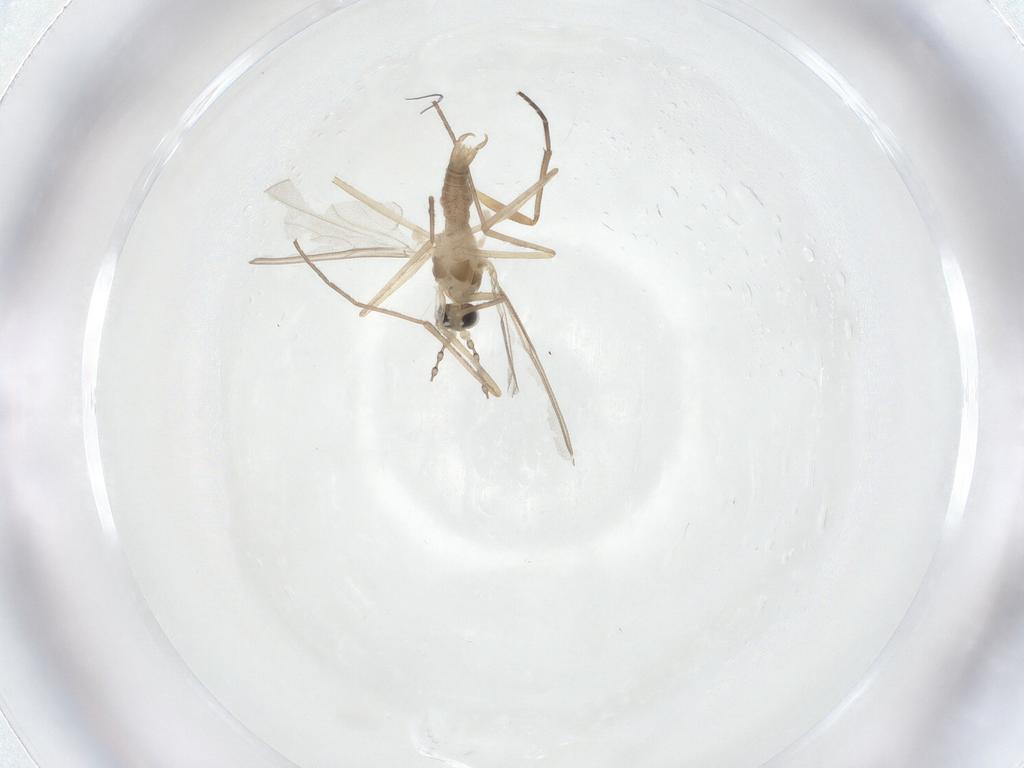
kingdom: Animalia
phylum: Arthropoda
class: Insecta
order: Diptera
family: Cecidomyiidae
